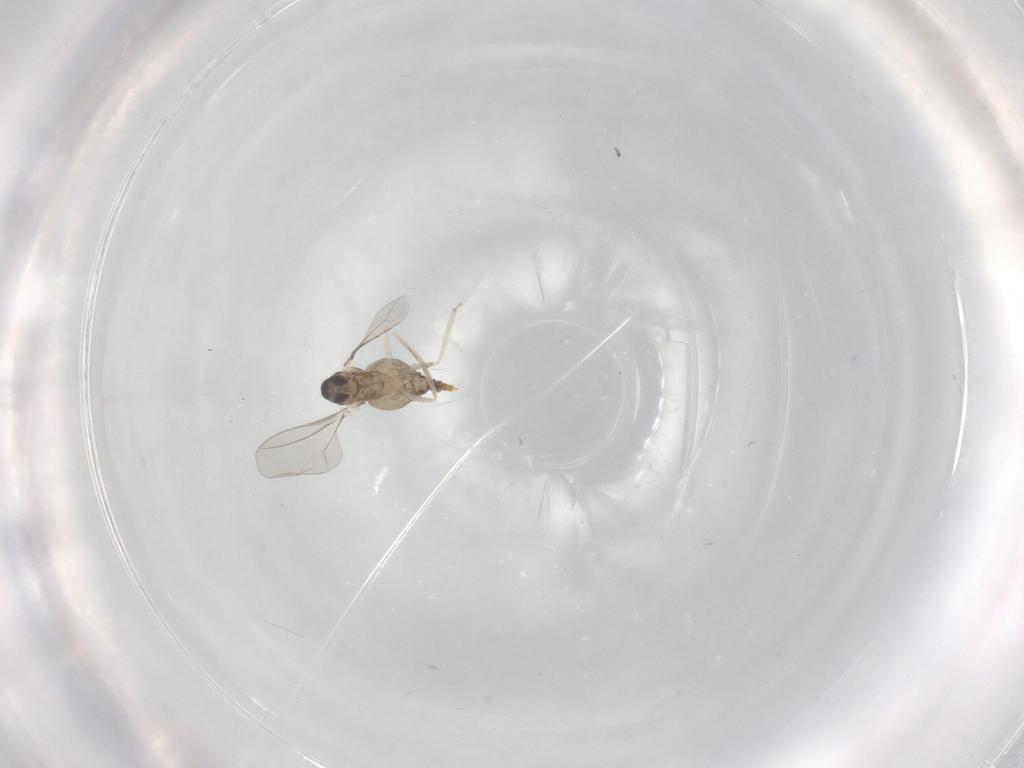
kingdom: Animalia
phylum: Arthropoda
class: Insecta
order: Diptera
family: Cecidomyiidae
